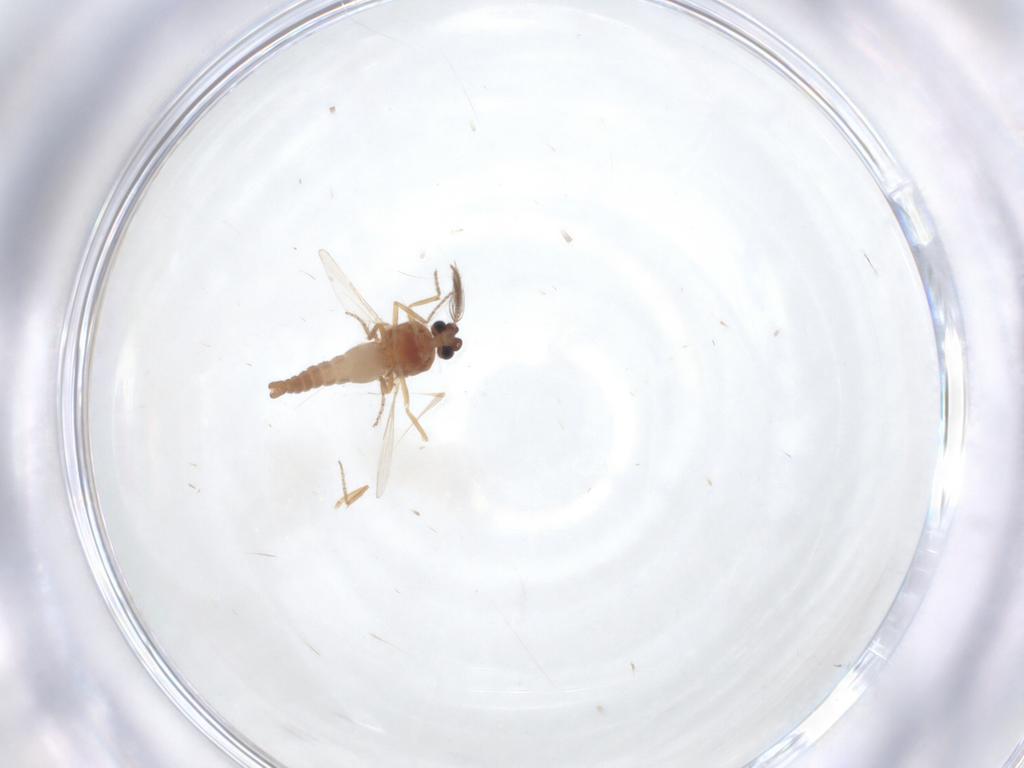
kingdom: Animalia
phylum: Arthropoda
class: Insecta
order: Diptera
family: Ceratopogonidae
